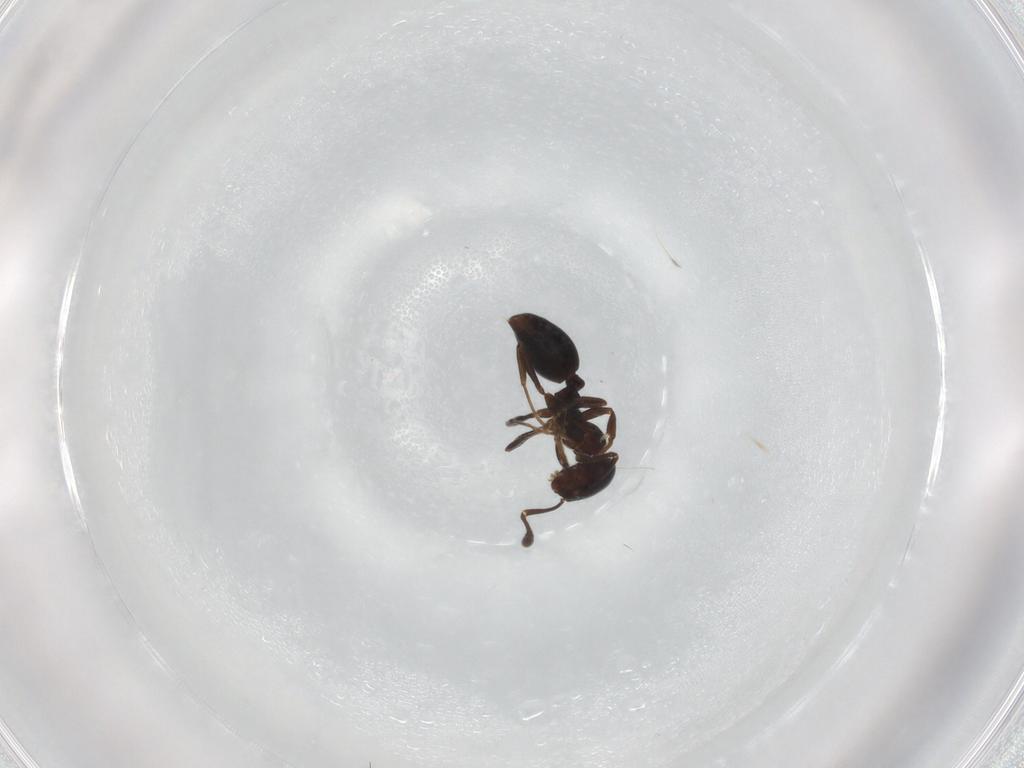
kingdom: Animalia
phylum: Arthropoda
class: Insecta
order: Hymenoptera
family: Formicidae
